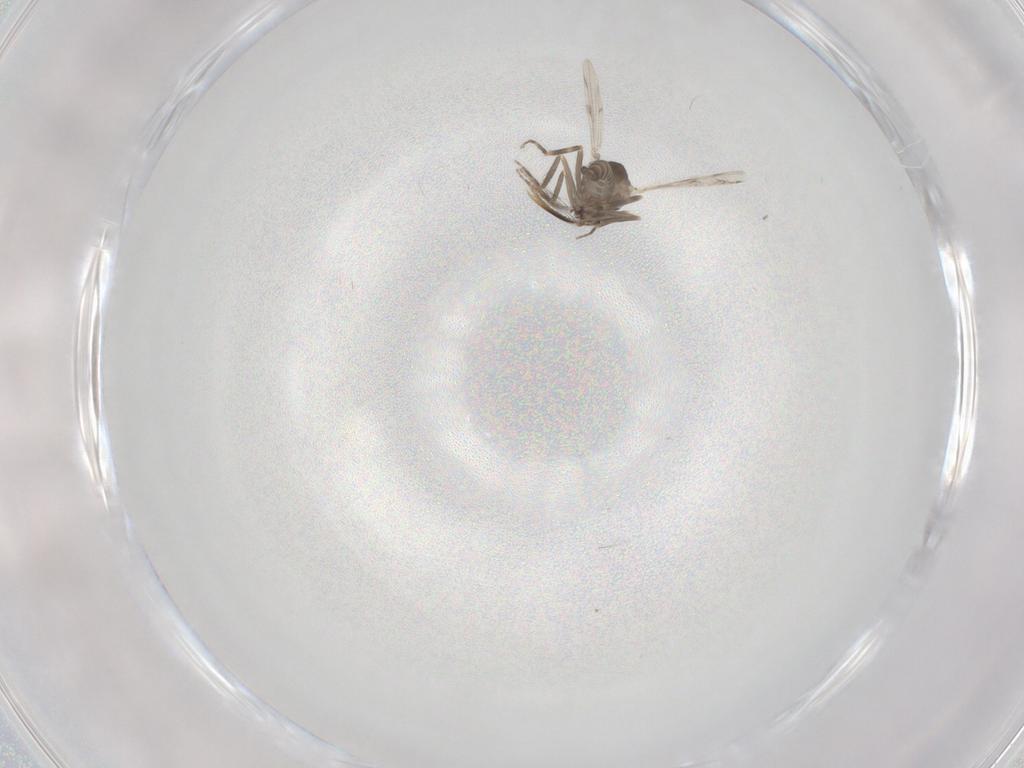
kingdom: Animalia
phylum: Arthropoda
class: Insecta
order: Diptera
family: Ceratopogonidae
